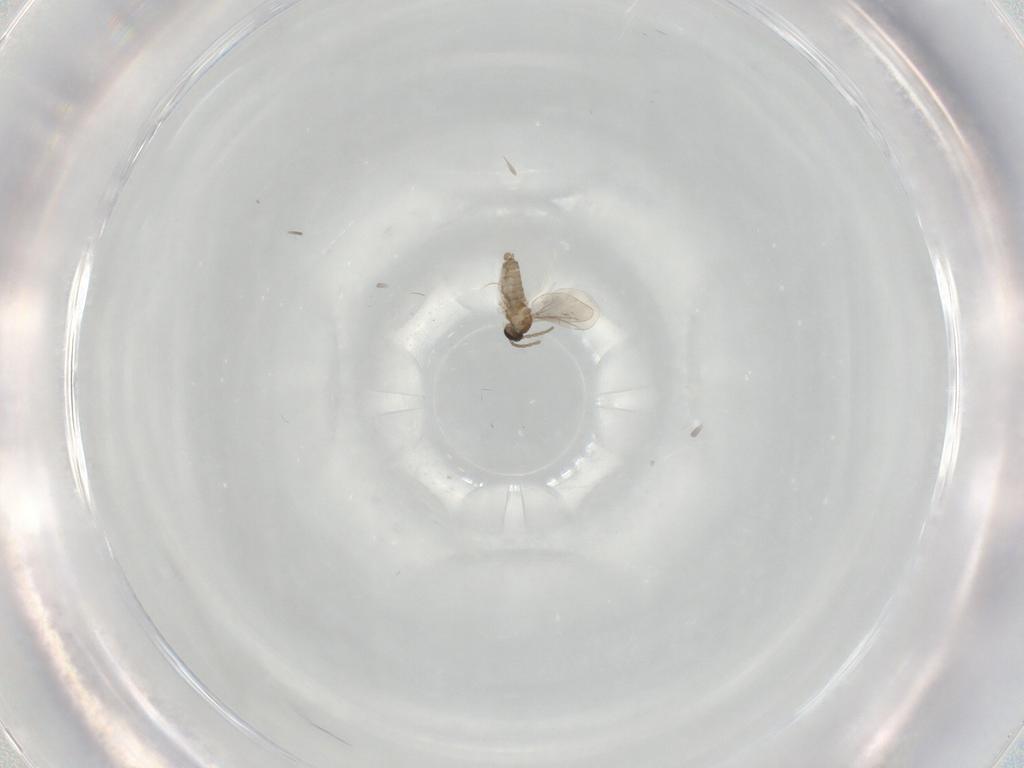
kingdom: Animalia
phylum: Arthropoda
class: Insecta
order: Diptera
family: Cecidomyiidae
